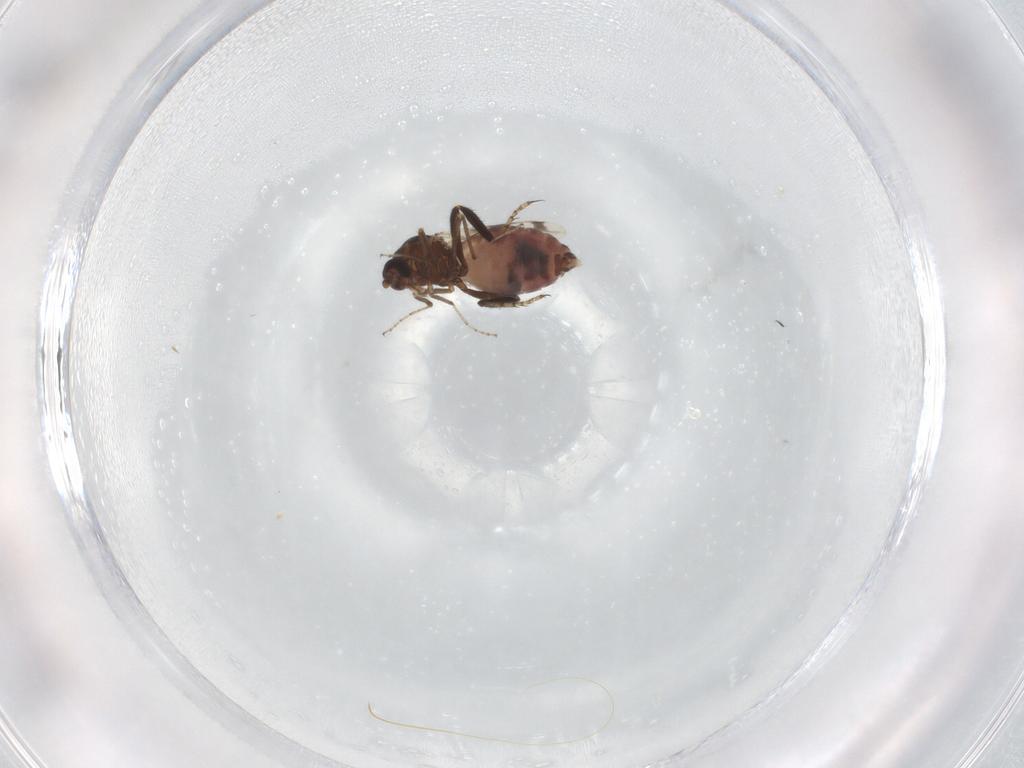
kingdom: Animalia
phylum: Arthropoda
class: Insecta
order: Diptera
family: Ceratopogonidae
